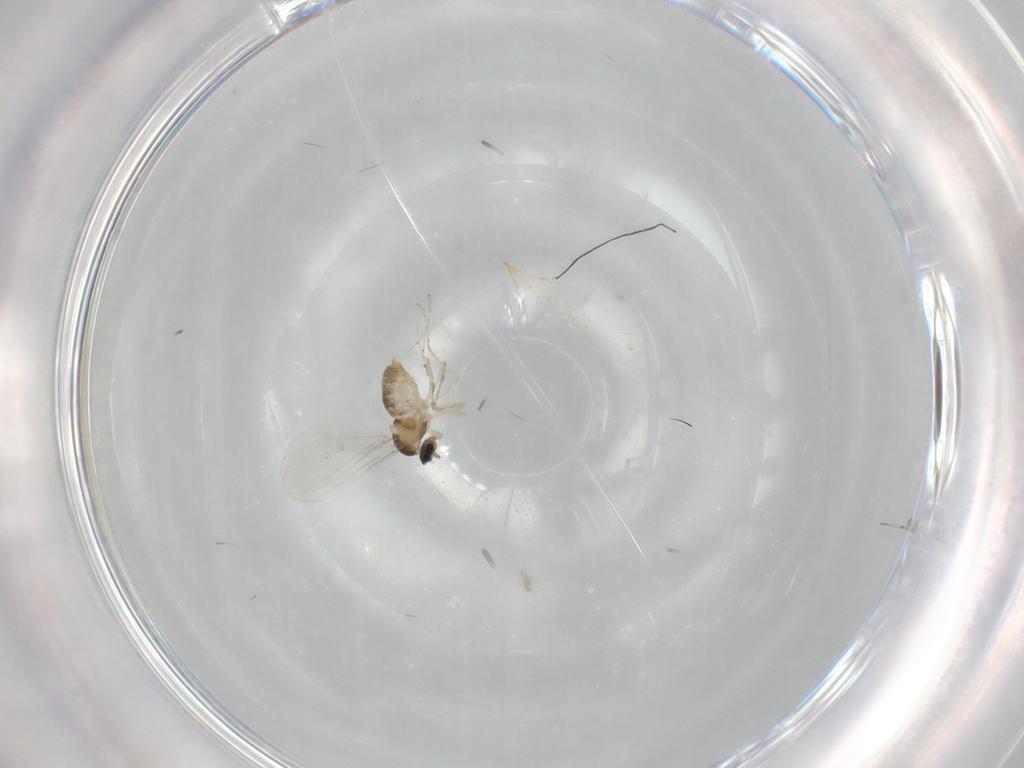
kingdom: Animalia
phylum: Arthropoda
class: Insecta
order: Diptera
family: Cecidomyiidae
